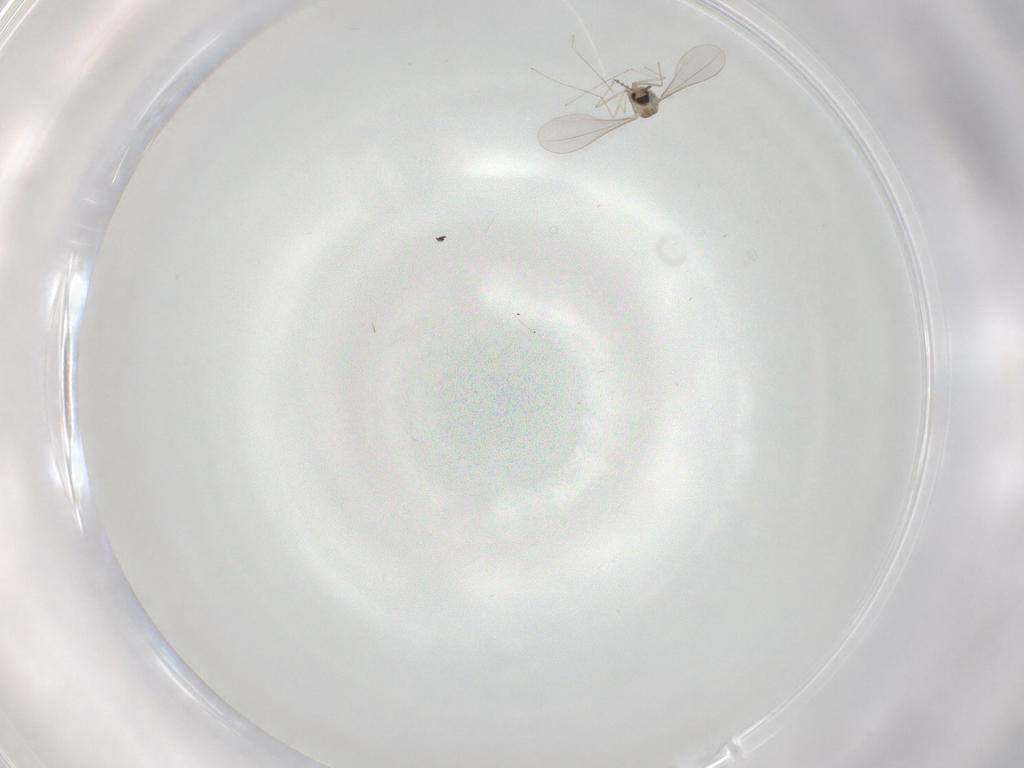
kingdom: Animalia
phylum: Arthropoda
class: Insecta
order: Diptera
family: Cecidomyiidae
